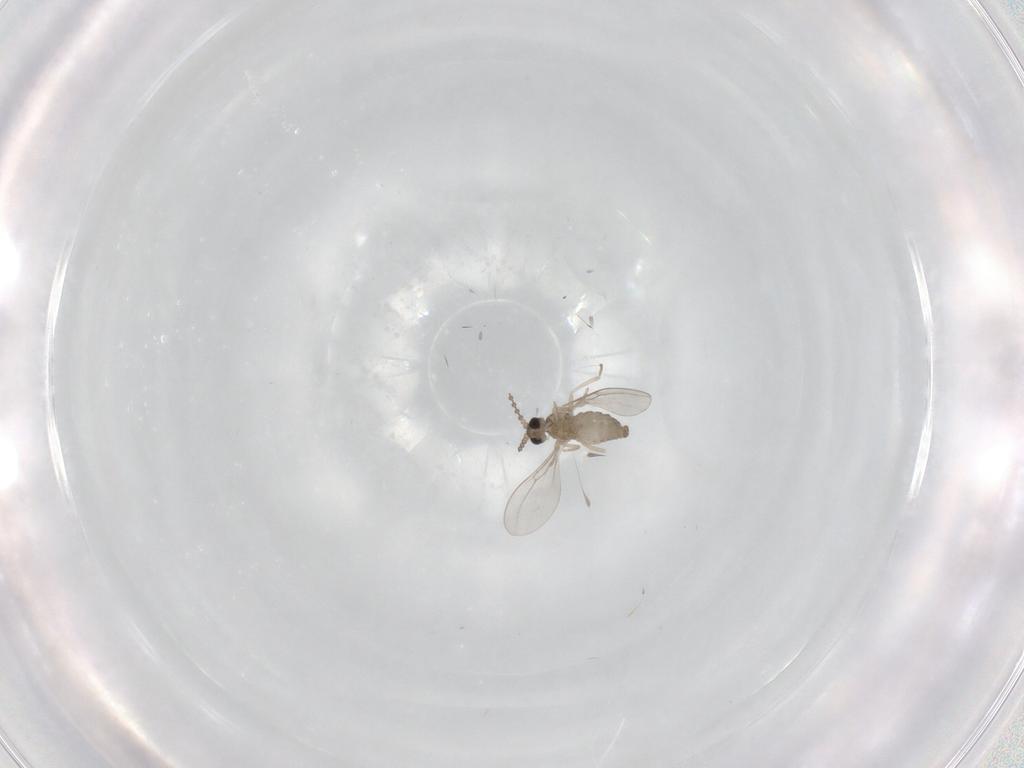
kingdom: Animalia
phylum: Arthropoda
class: Insecta
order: Diptera
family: Cecidomyiidae
